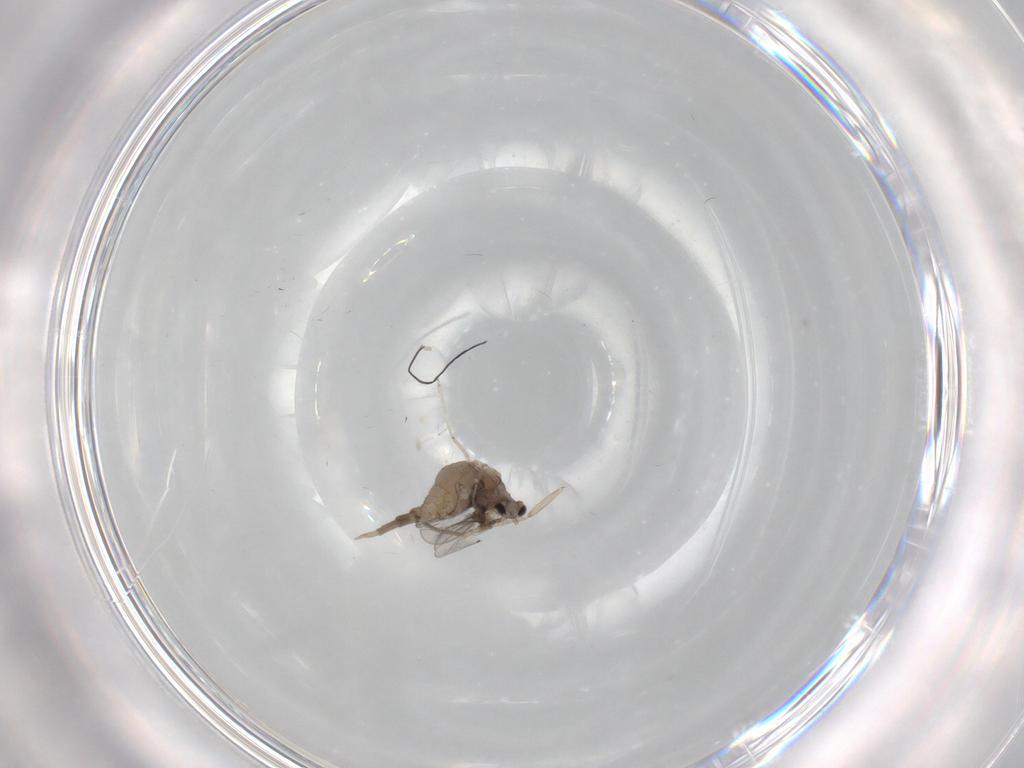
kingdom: Animalia
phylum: Arthropoda
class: Insecta
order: Diptera
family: Cecidomyiidae
